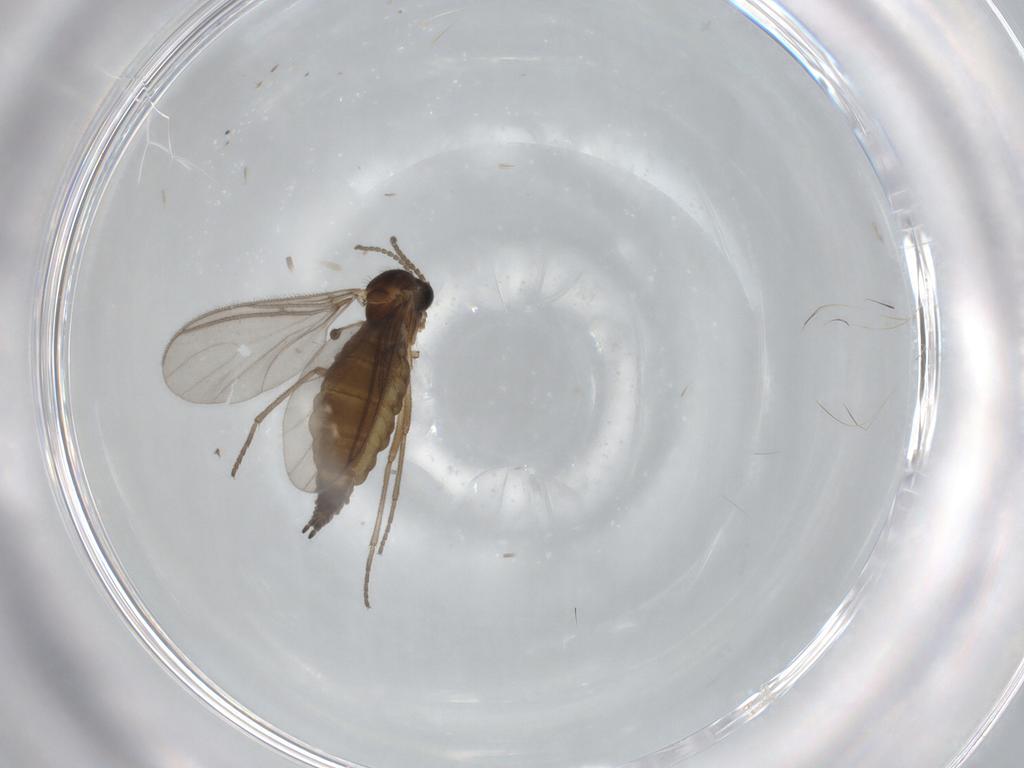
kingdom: Animalia
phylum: Arthropoda
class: Insecta
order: Diptera
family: Sciaridae
